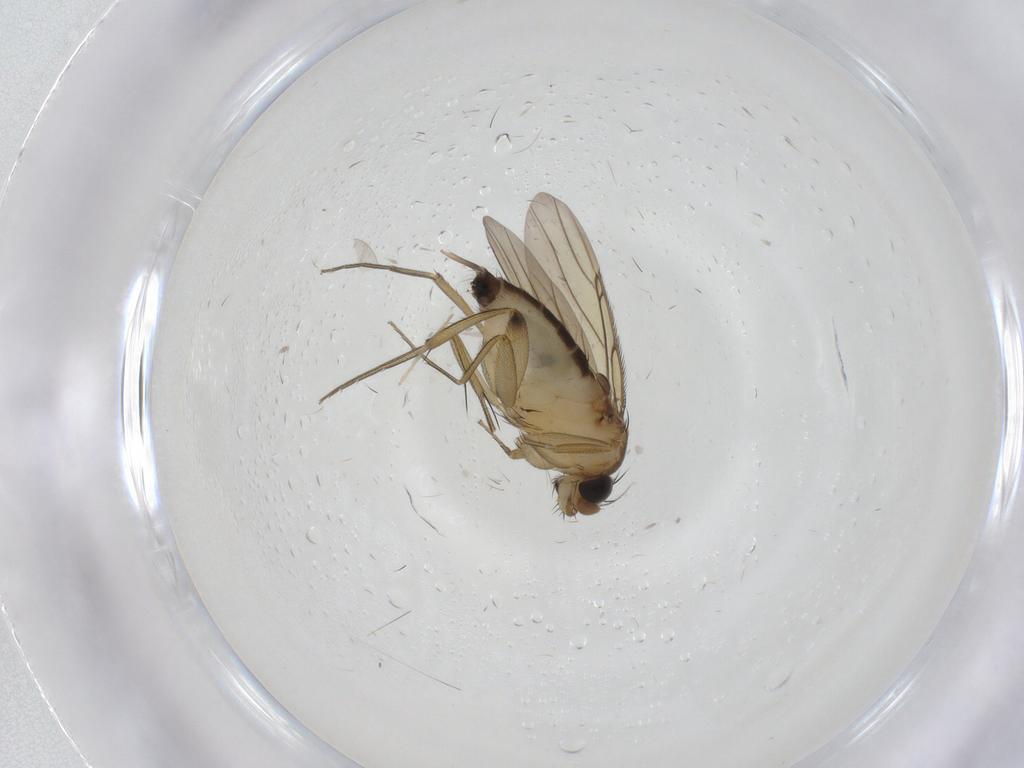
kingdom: Animalia
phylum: Arthropoda
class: Insecta
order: Diptera
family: Phoridae
